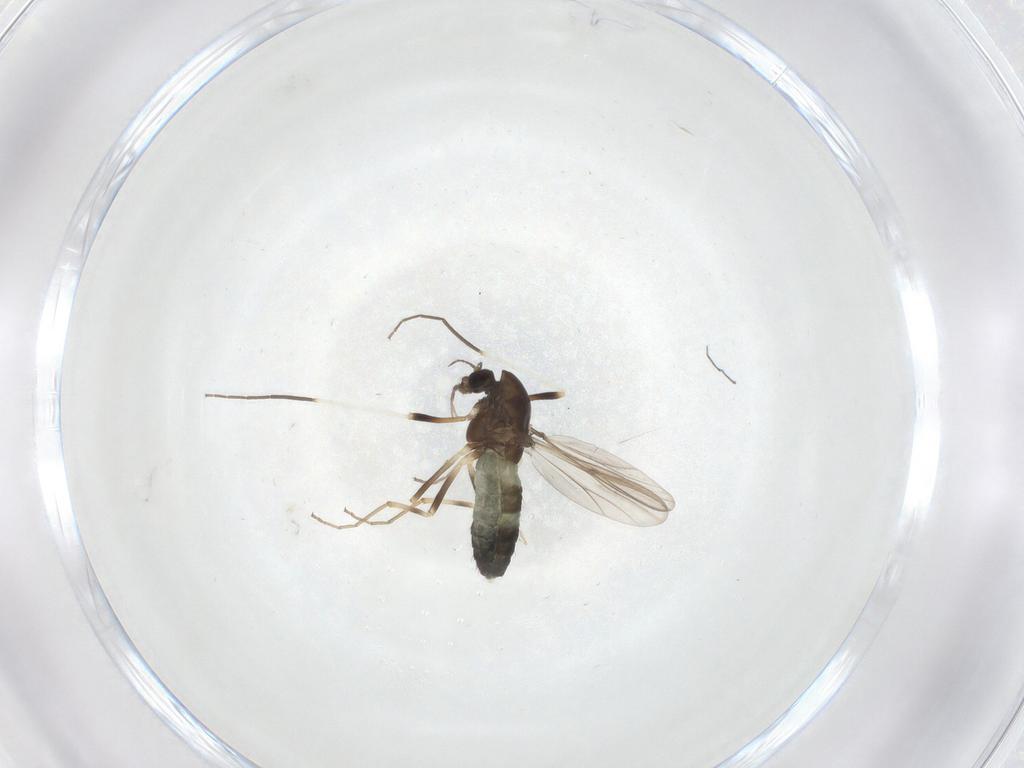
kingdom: Animalia
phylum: Arthropoda
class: Insecta
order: Diptera
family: Chironomidae
